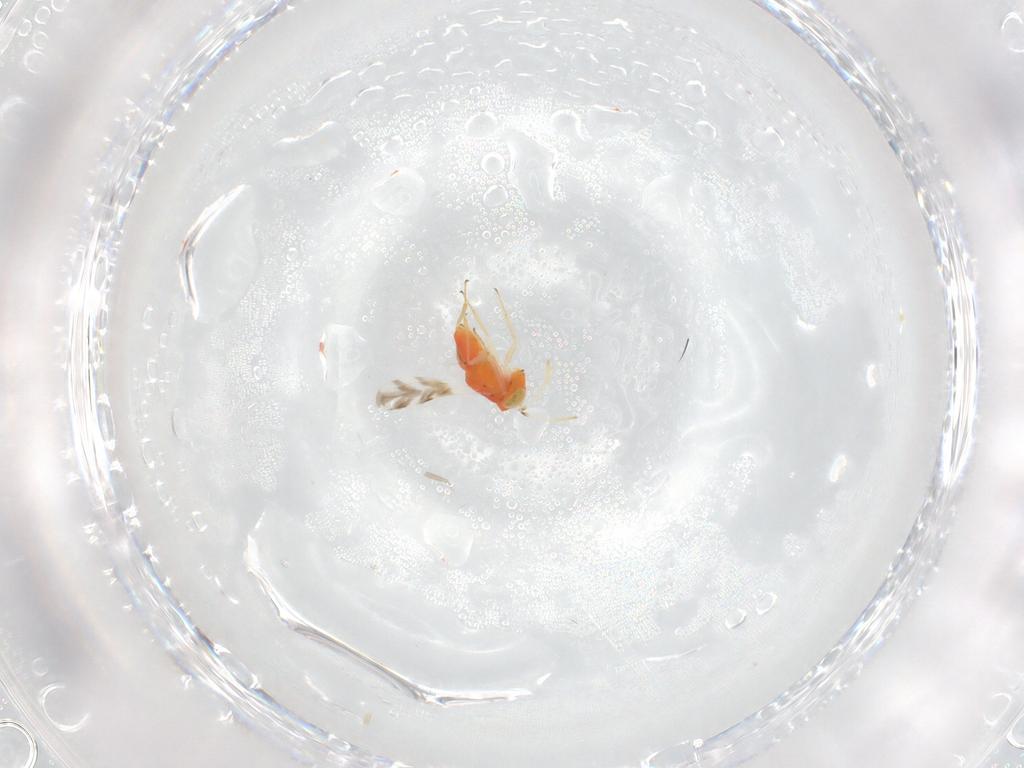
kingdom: Animalia
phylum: Arthropoda
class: Insecta
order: Hymenoptera
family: Encyrtidae
